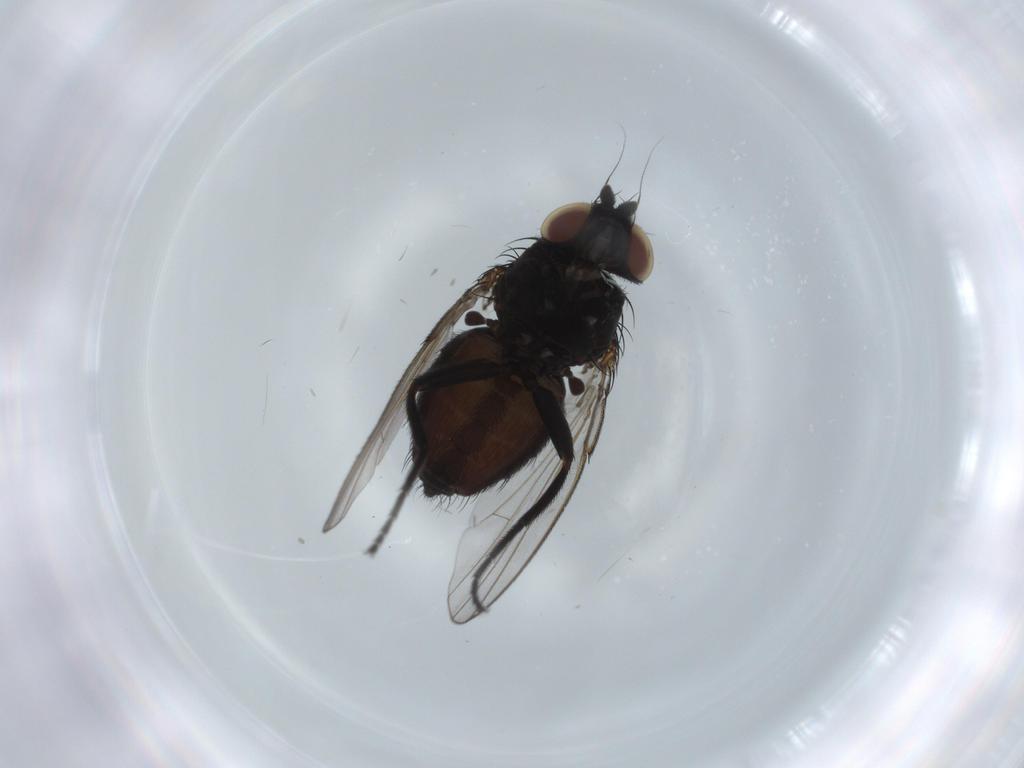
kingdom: Animalia
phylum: Arthropoda
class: Insecta
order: Diptera
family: Milichiidae
